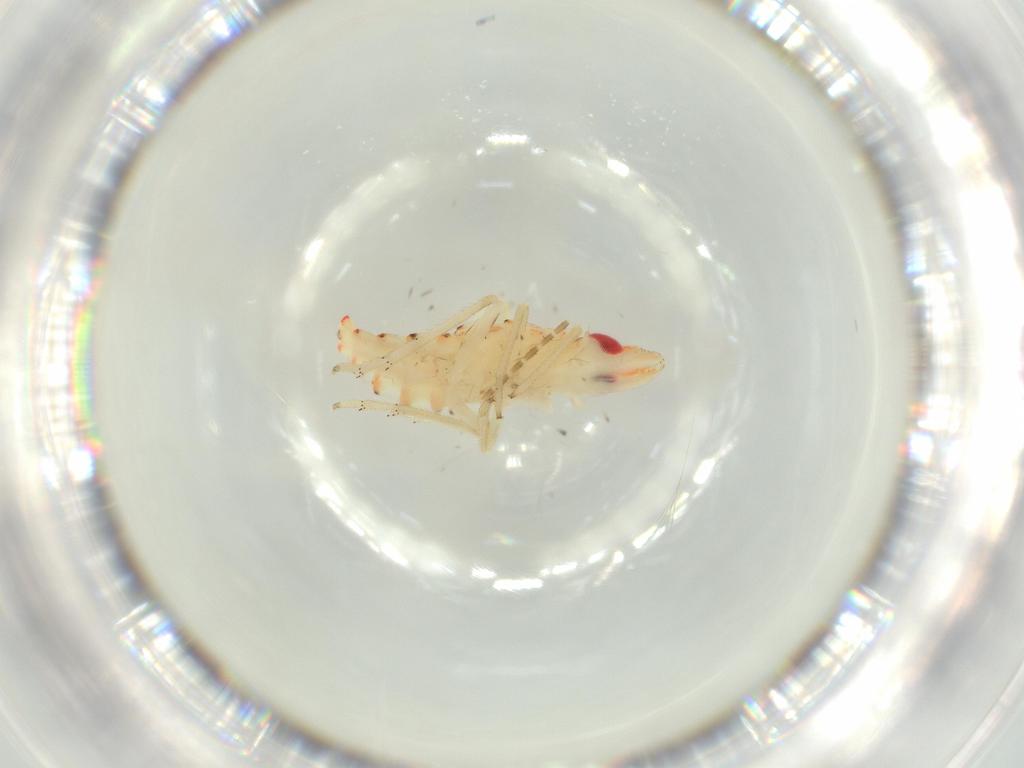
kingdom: Animalia
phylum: Arthropoda
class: Insecta
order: Hemiptera
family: Tropiduchidae
